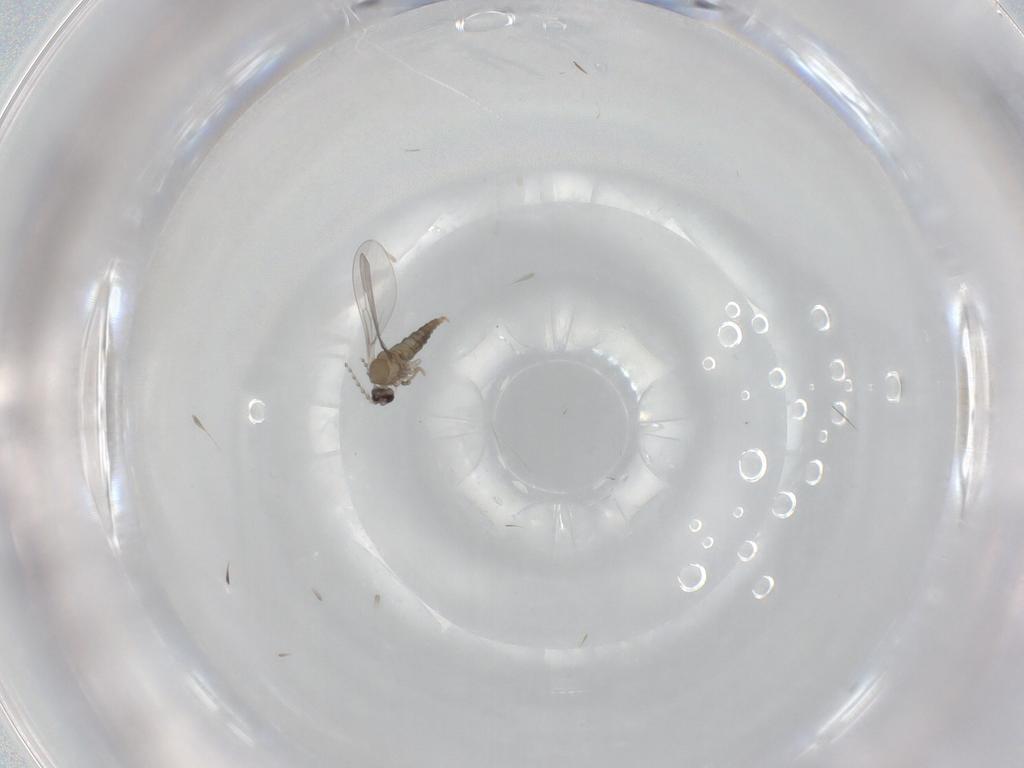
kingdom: Animalia
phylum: Arthropoda
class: Insecta
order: Diptera
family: Cecidomyiidae
